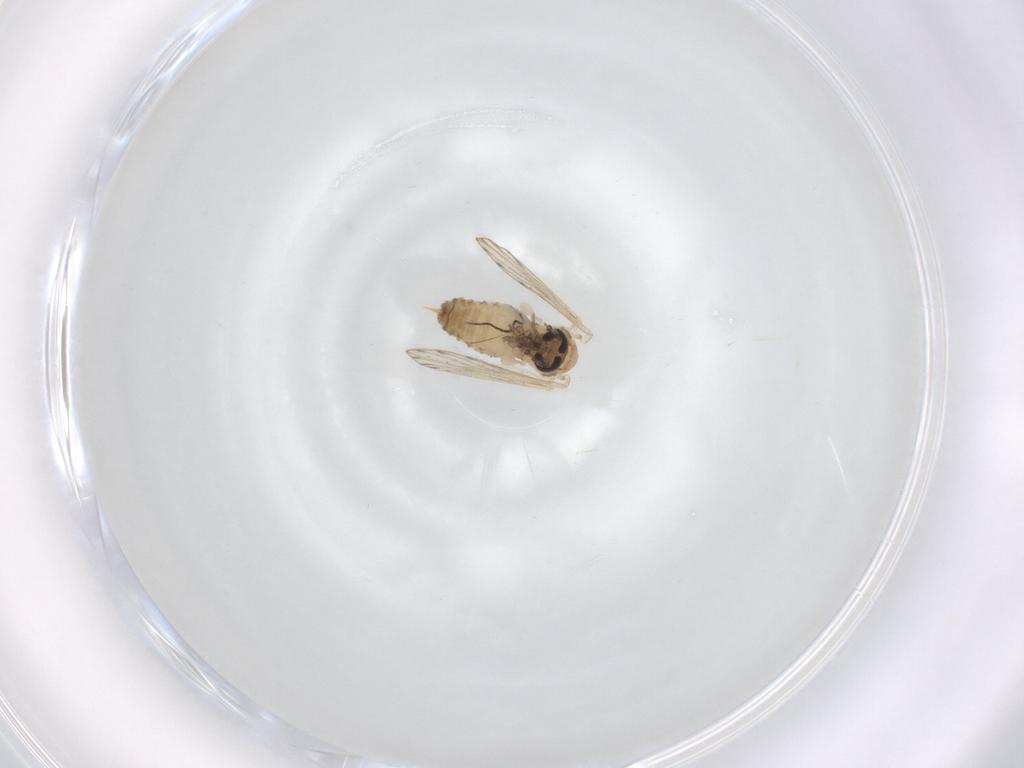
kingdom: Animalia
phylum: Arthropoda
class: Insecta
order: Diptera
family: Psychodidae
